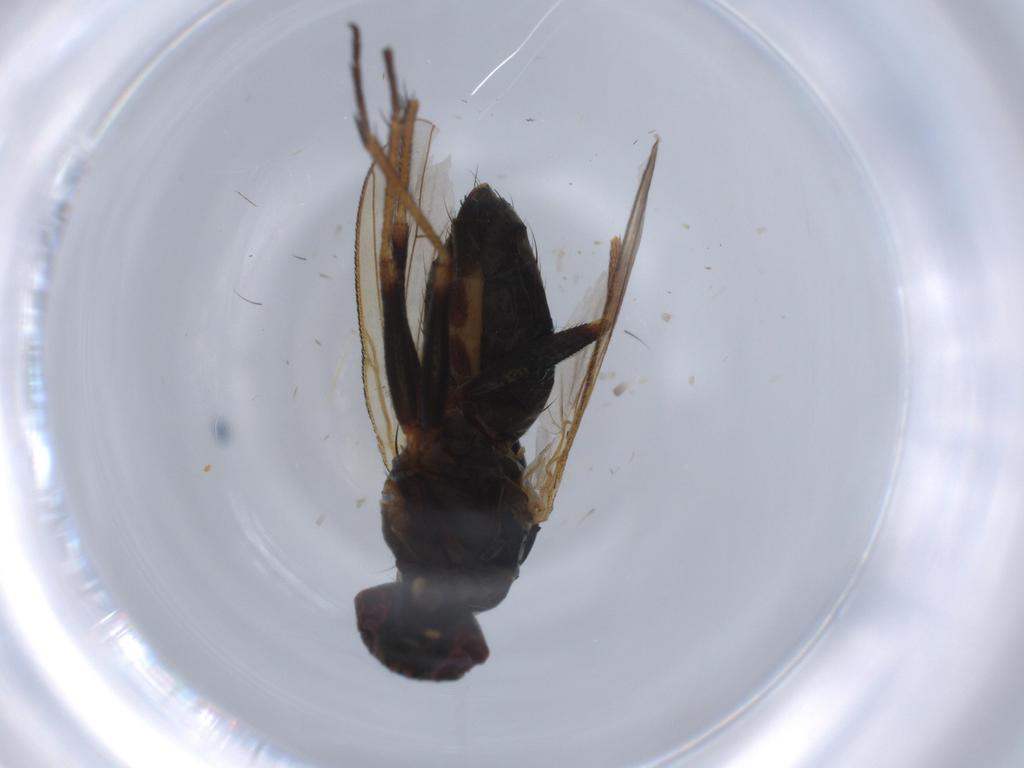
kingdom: Animalia
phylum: Arthropoda
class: Insecta
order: Diptera
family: Muscidae
